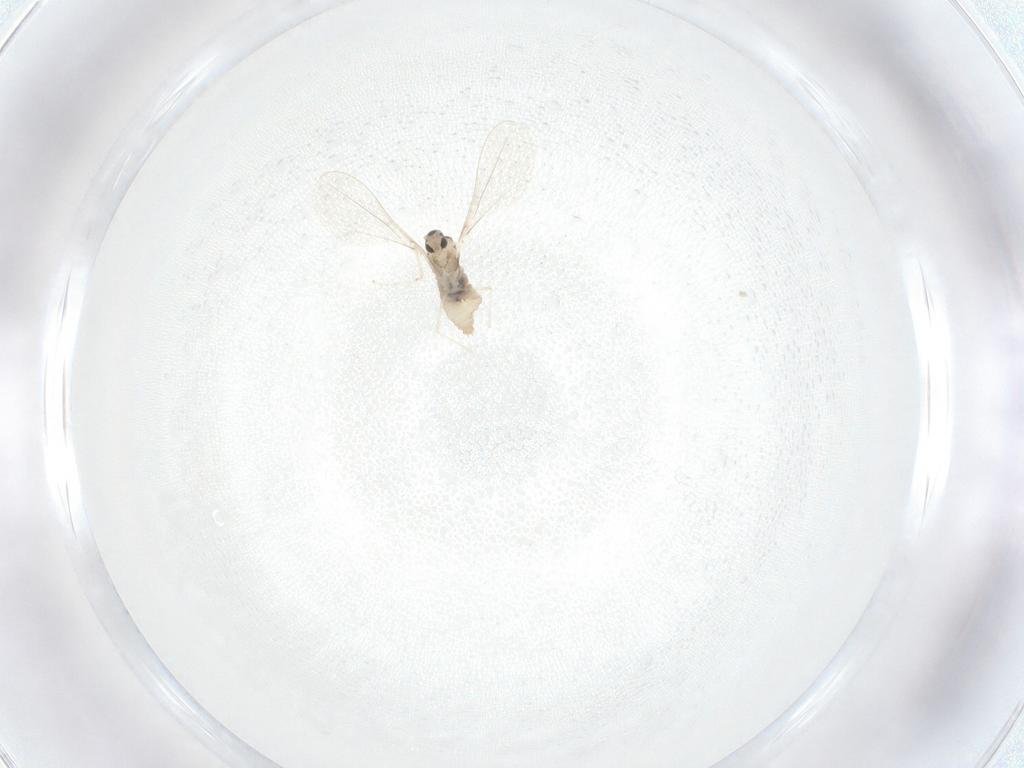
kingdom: Animalia
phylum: Arthropoda
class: Insecta
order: Diptera
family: Cecidomyiidae
